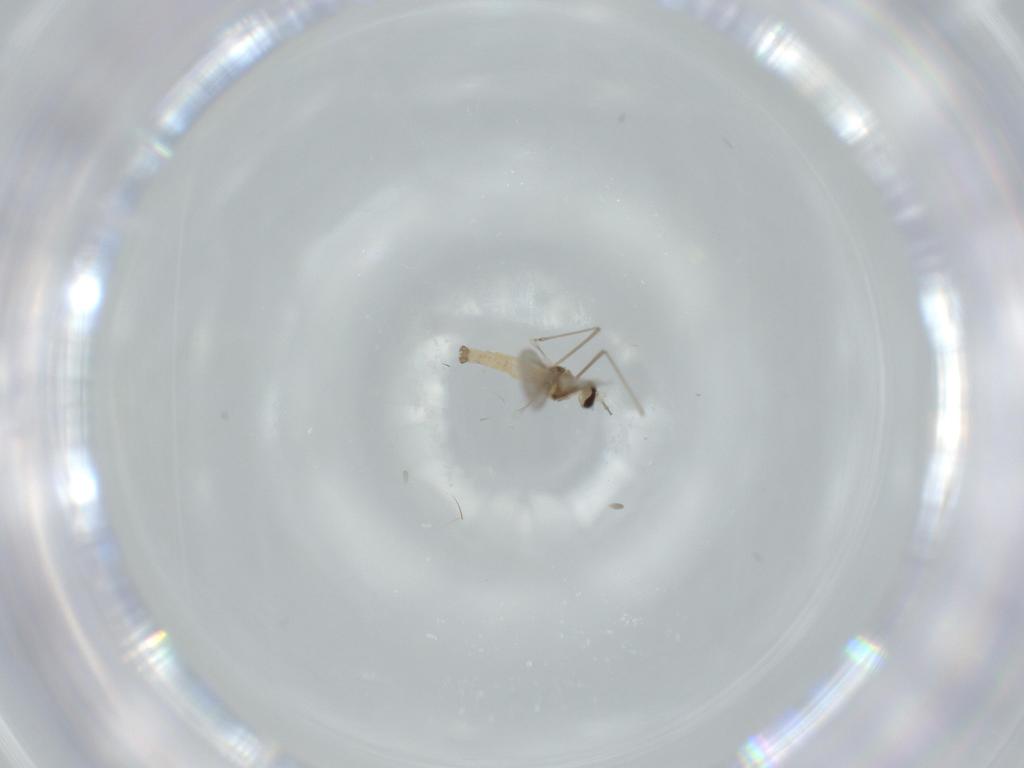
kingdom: Animalia
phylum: Arthropoda
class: Insecta
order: Diptera
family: Cecidomyiidae
